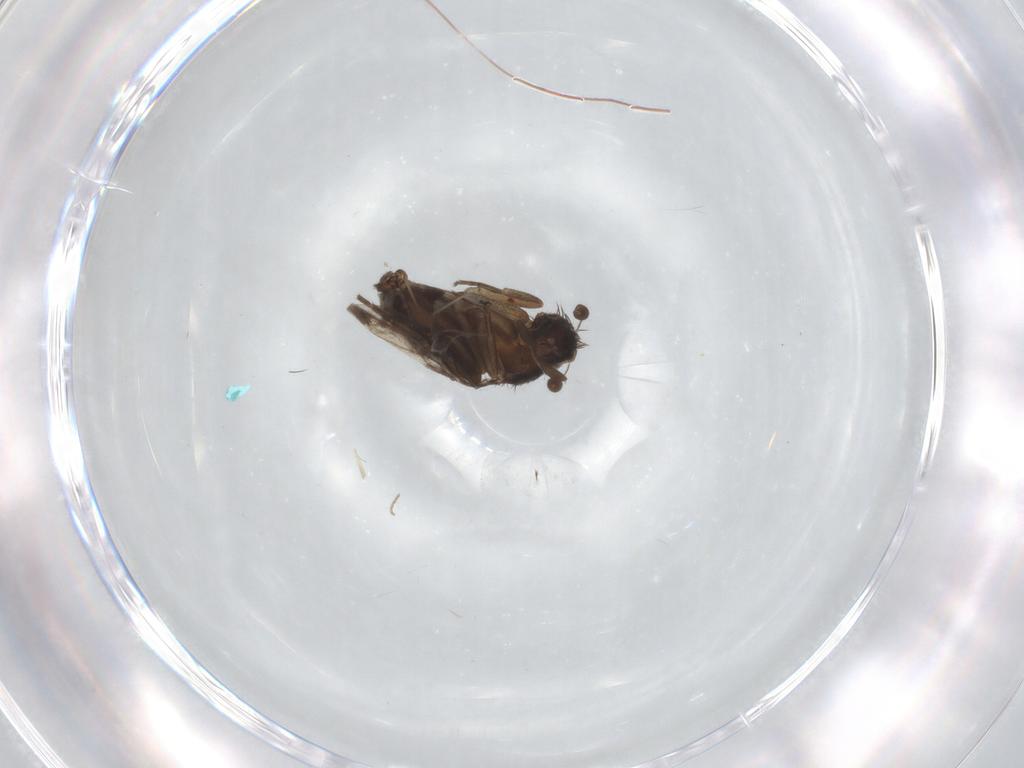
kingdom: Animalia
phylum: Arthropoda
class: Insecta
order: Diptera
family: Phoridae
